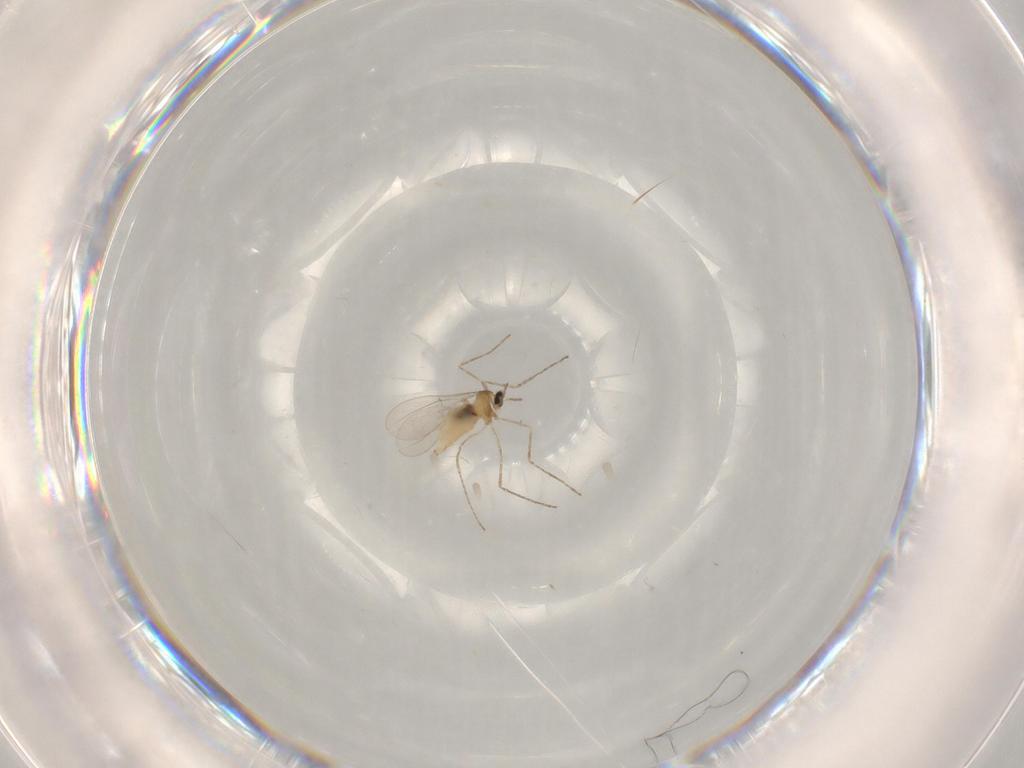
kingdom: Animalia
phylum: Arthropoda
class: Insecta
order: Diptera
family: Cecidomyiidae
